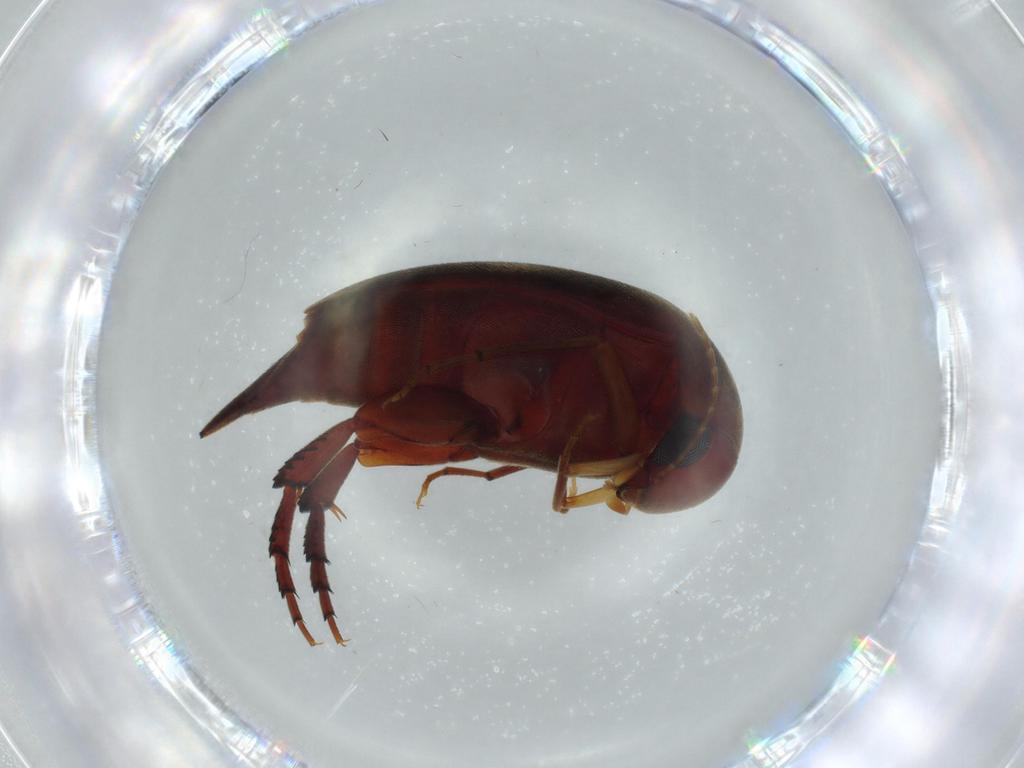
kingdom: Animalia
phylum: Arthropoda
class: Insecta
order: Coleoptera
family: Mordellidae
